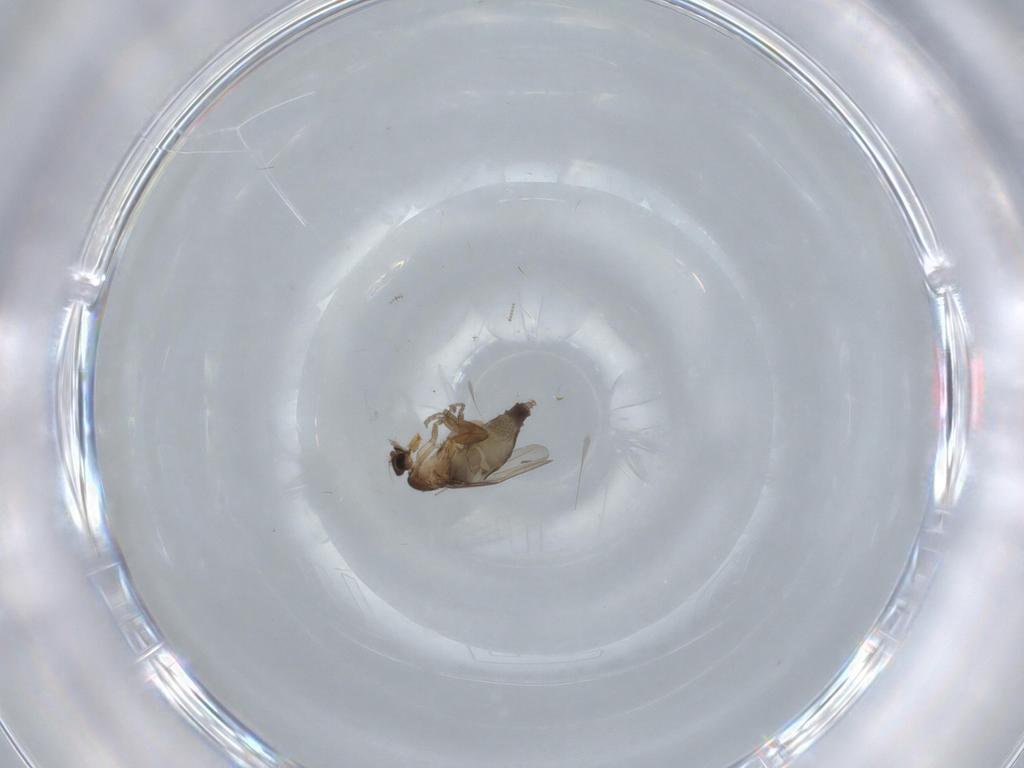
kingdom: Animalia
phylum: Arthropoda
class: Insecta
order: Diptera
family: Phoridae
